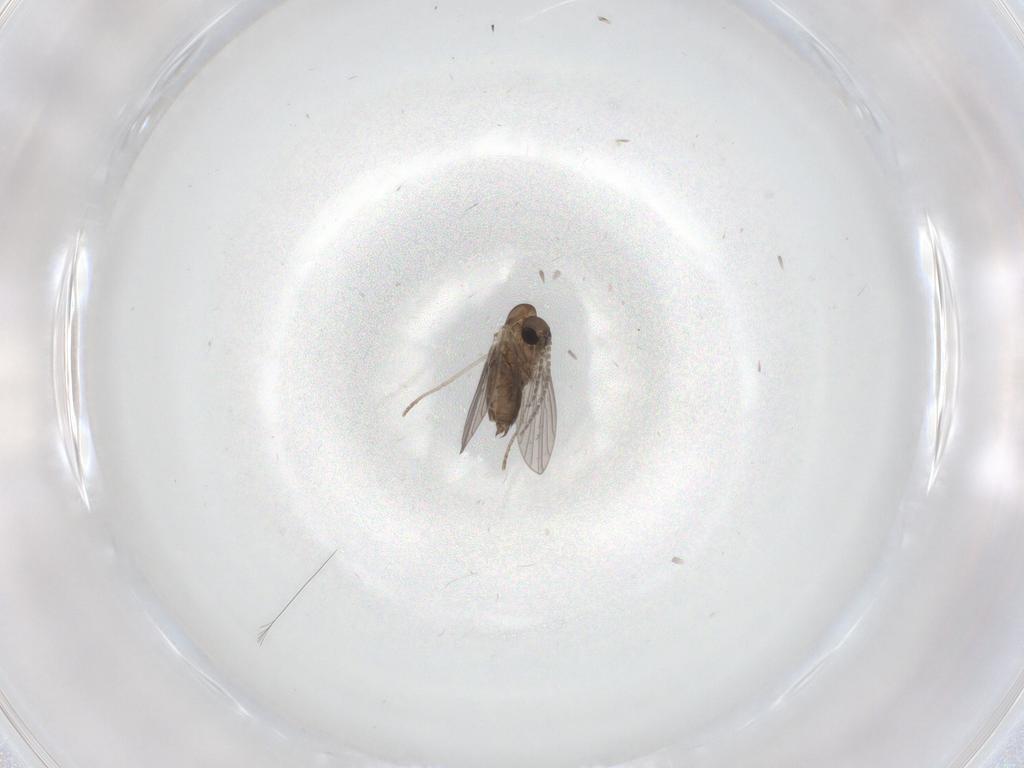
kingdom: Animalia
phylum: Arthropoda
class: Insecta
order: Diptera
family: Phoridae
